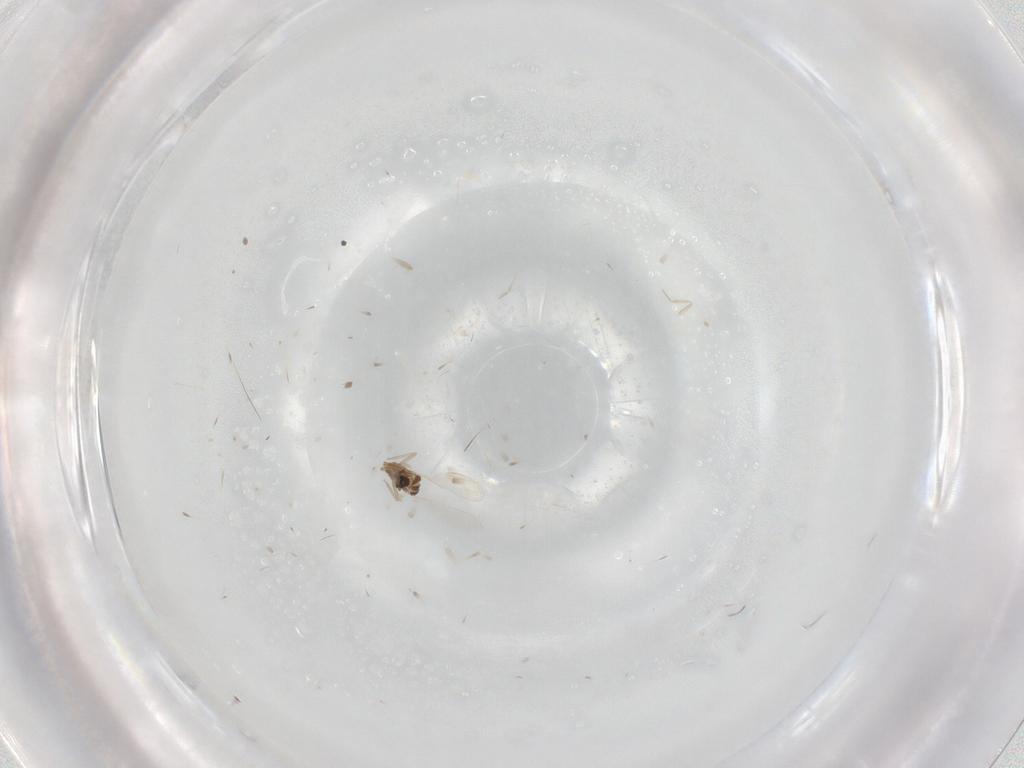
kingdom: Animalia
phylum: Arthropoda
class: Insecta
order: Diptera
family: Cecidomyiidae
